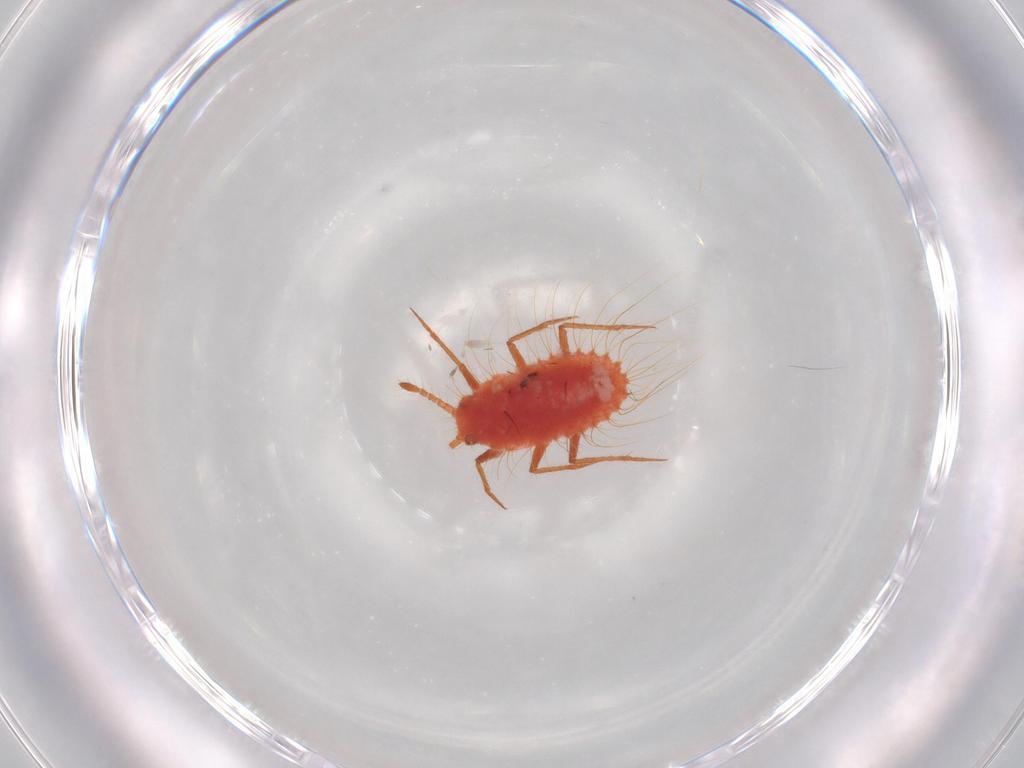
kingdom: Animalia
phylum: Arthropoda
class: Insecta
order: Hemiptera
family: Monophlebidae
